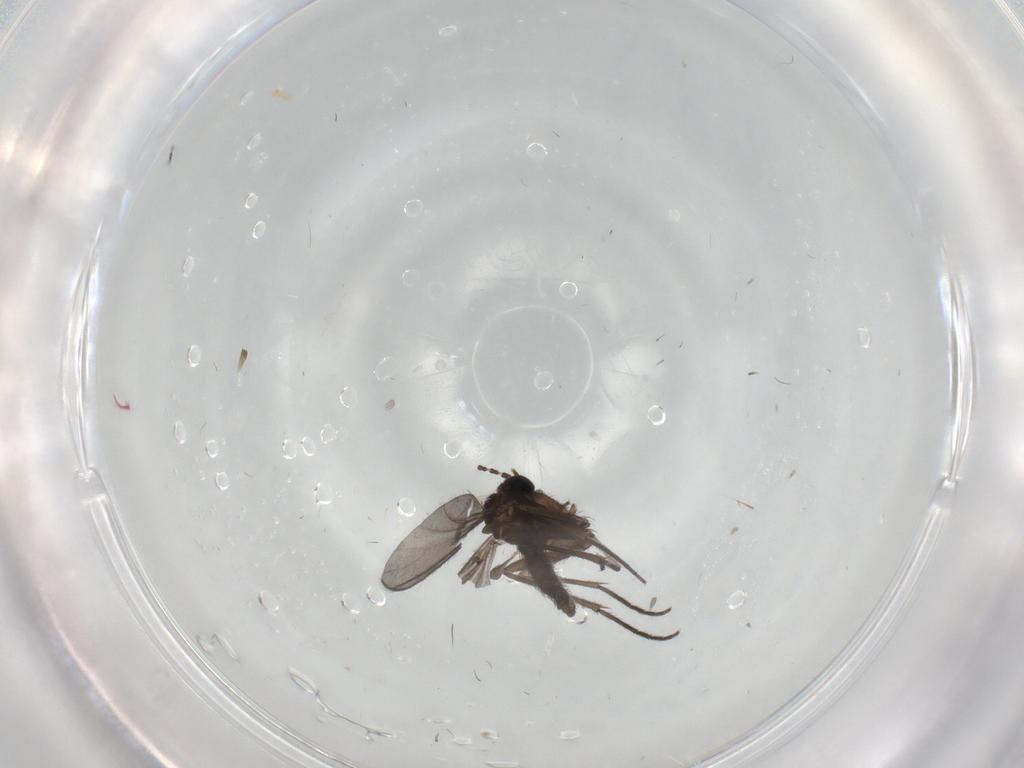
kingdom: Animalia
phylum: Arthropoda
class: Insecta
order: Diptera
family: Sciaridae
